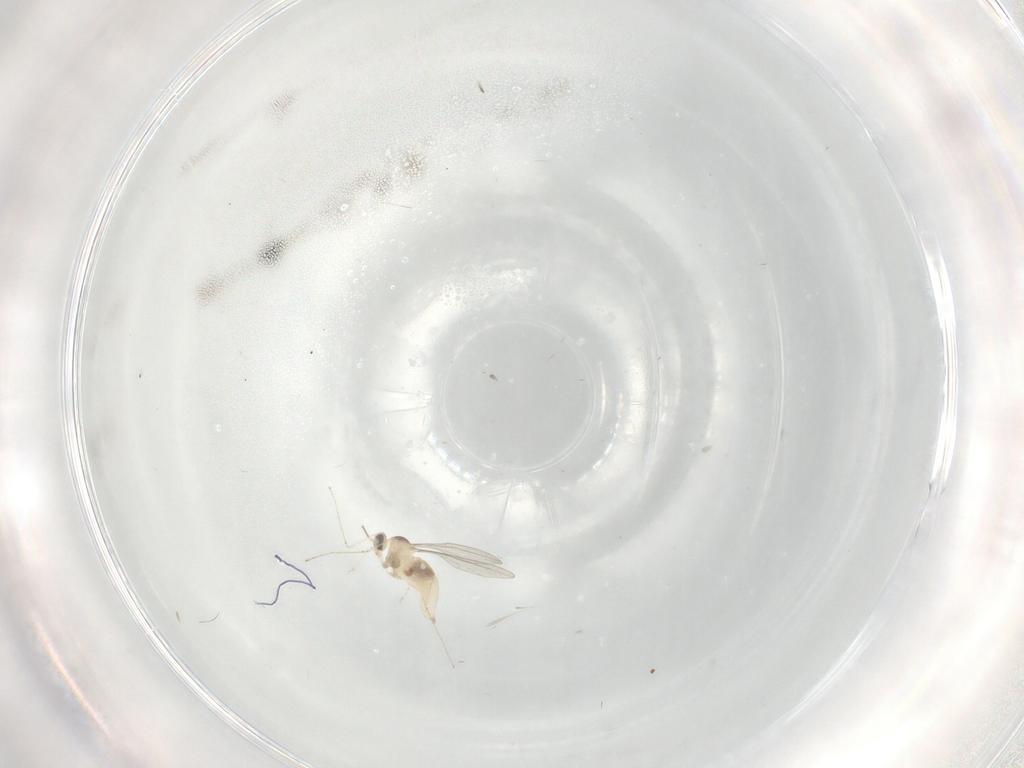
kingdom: Animalia
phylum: Arthropoda
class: Insecta
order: Diptera
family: Cecidomyiidae
